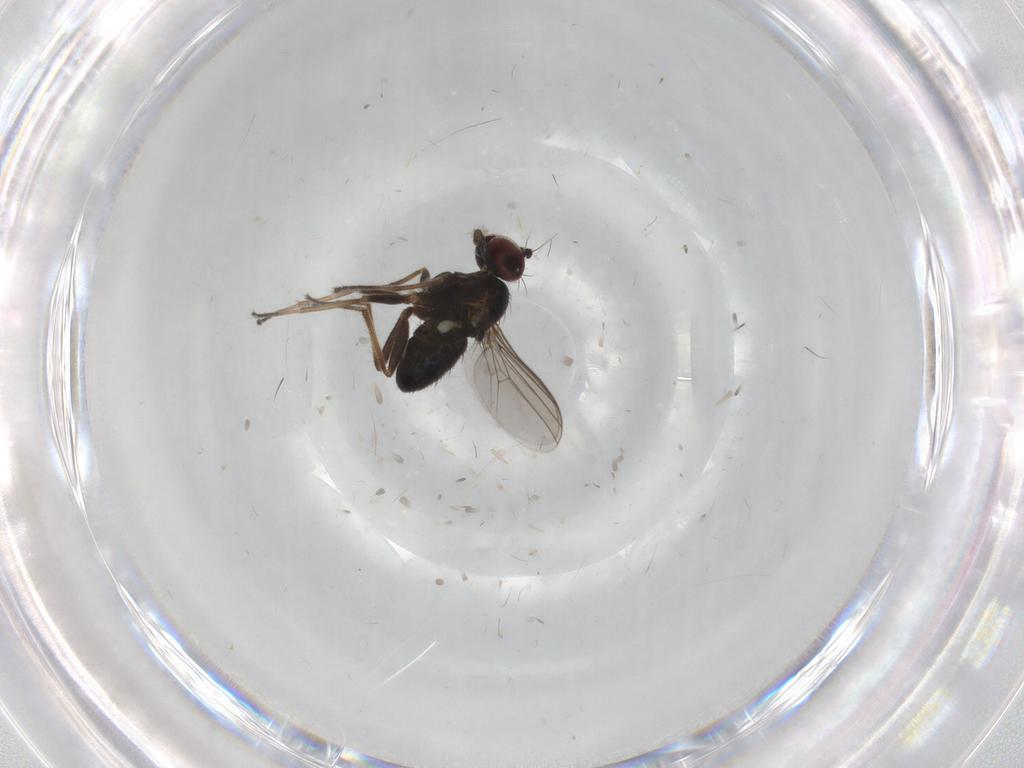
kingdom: Animalia
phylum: Arthropoda
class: Insecta
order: Diptera
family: Dolichopodidae
